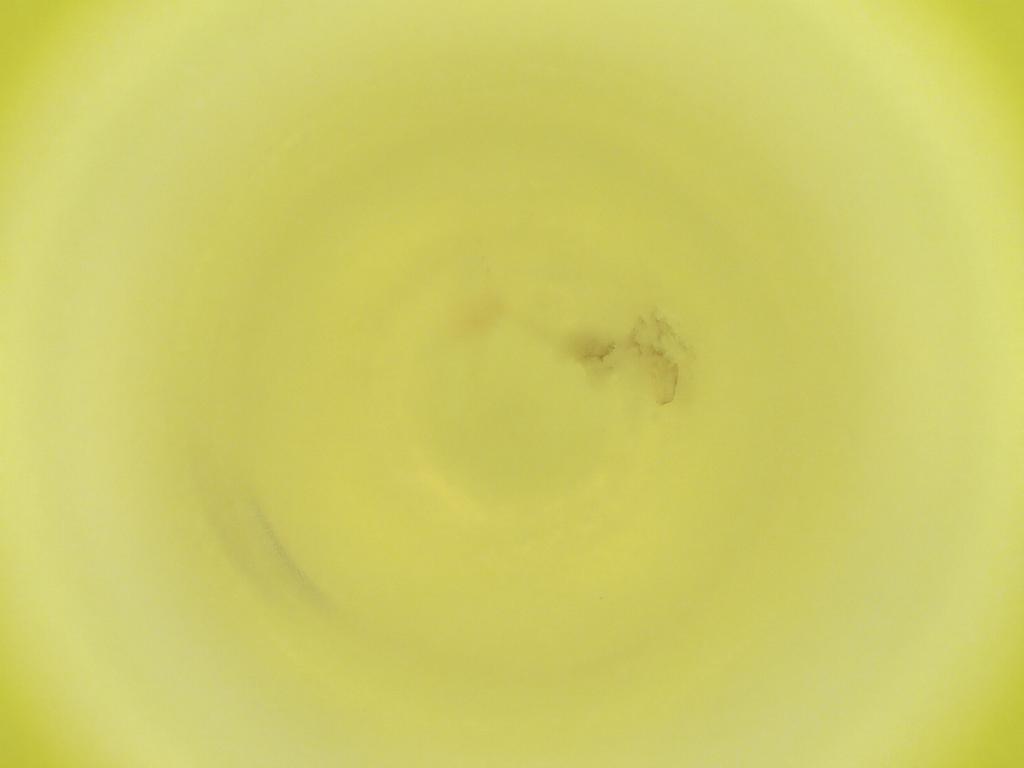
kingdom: Animalia
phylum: Arthropoda
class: Insecta
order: Diptera
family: Cecidomyiidae
